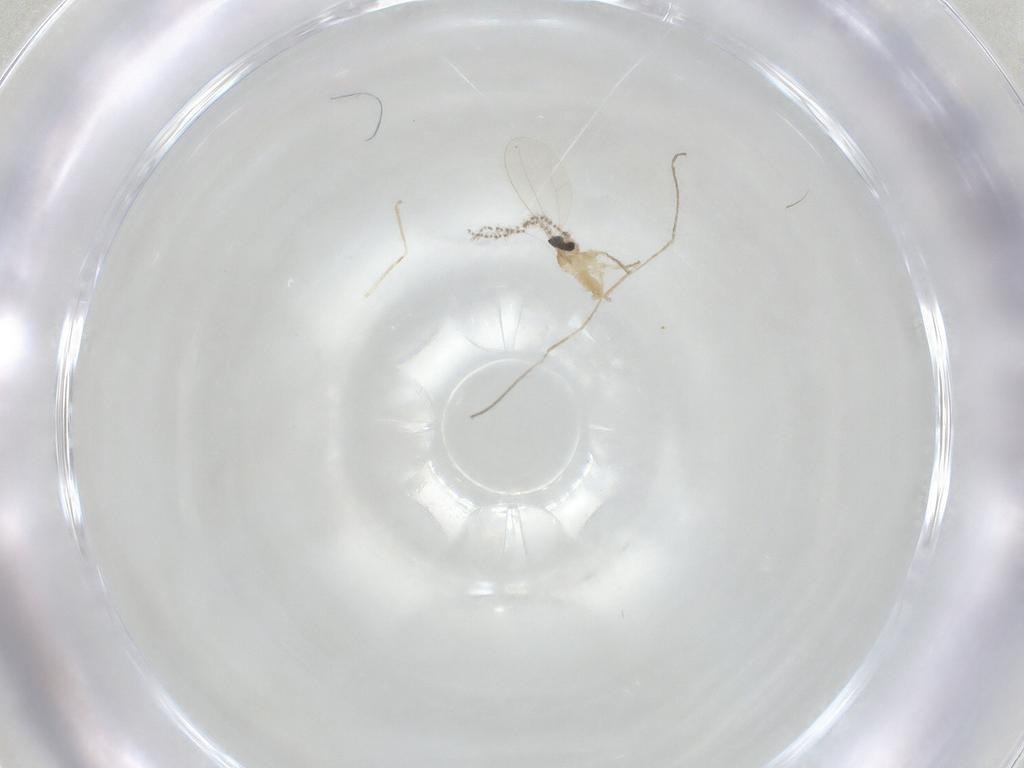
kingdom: Animalia
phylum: Arthropoda
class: Insecta
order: Diptera
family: Cecidomyiidae
